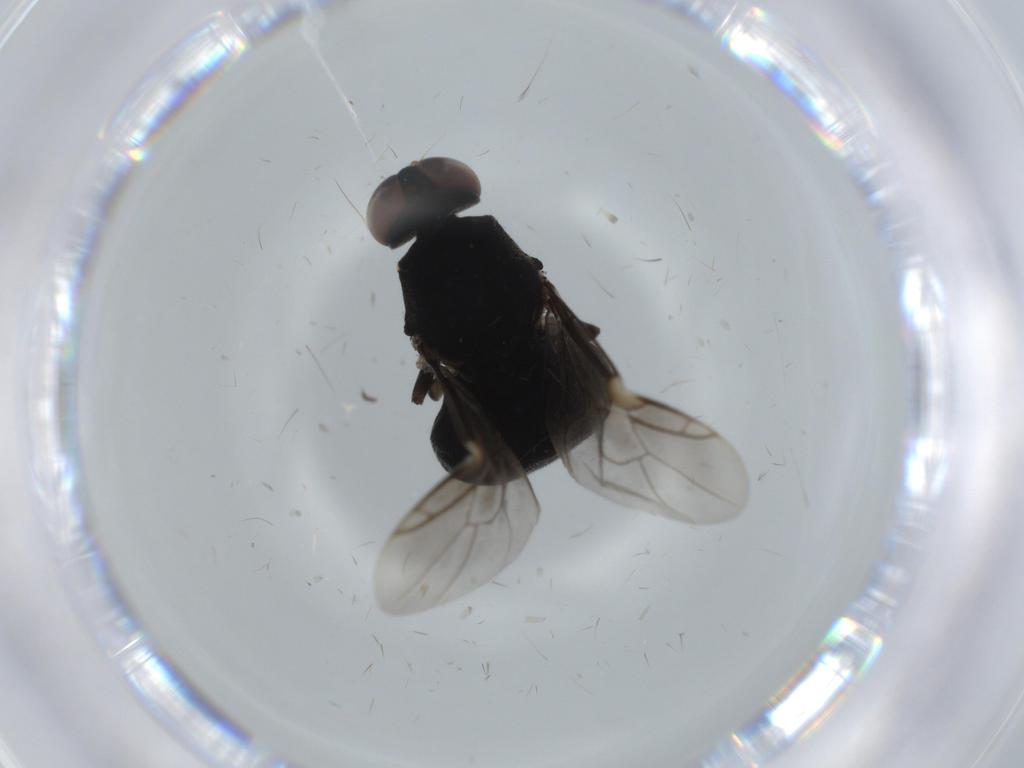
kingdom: Animalia
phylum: Arthropoda
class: Insecta
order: Diptera
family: Stratiomyidae
